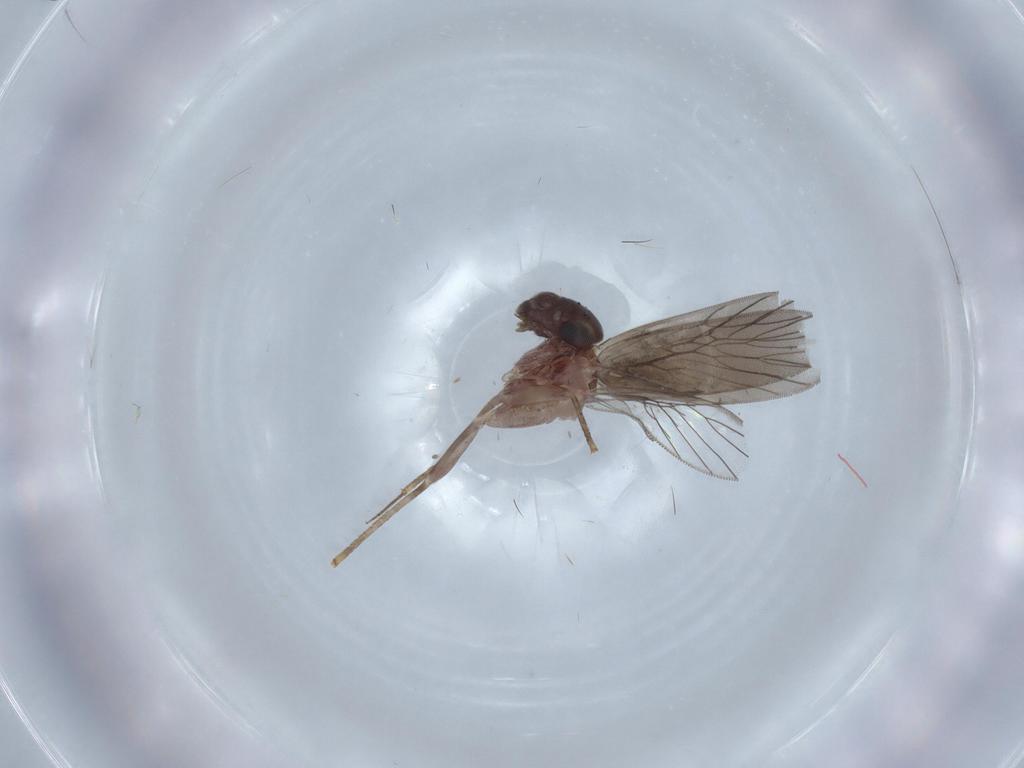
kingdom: Animalia
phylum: Arthropoda
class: Insecta
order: Psocodea
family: Lepidopsocidae
